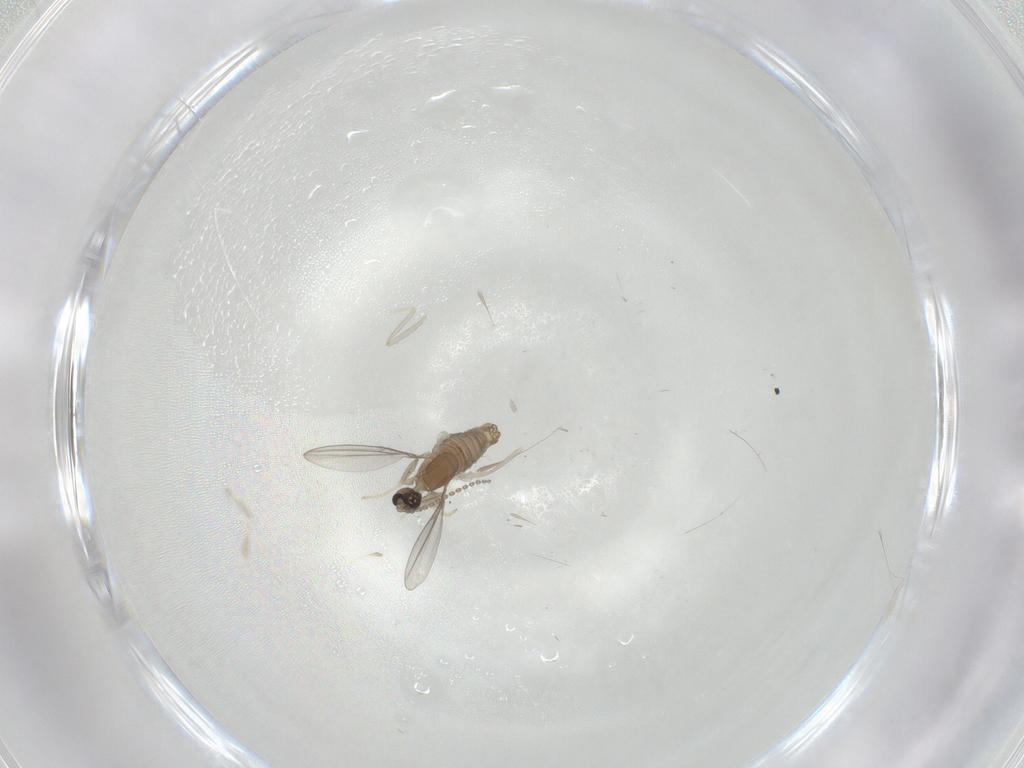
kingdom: Animalia
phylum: Arthropoda
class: Insecta
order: Diptera
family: Cecidomyiidae
